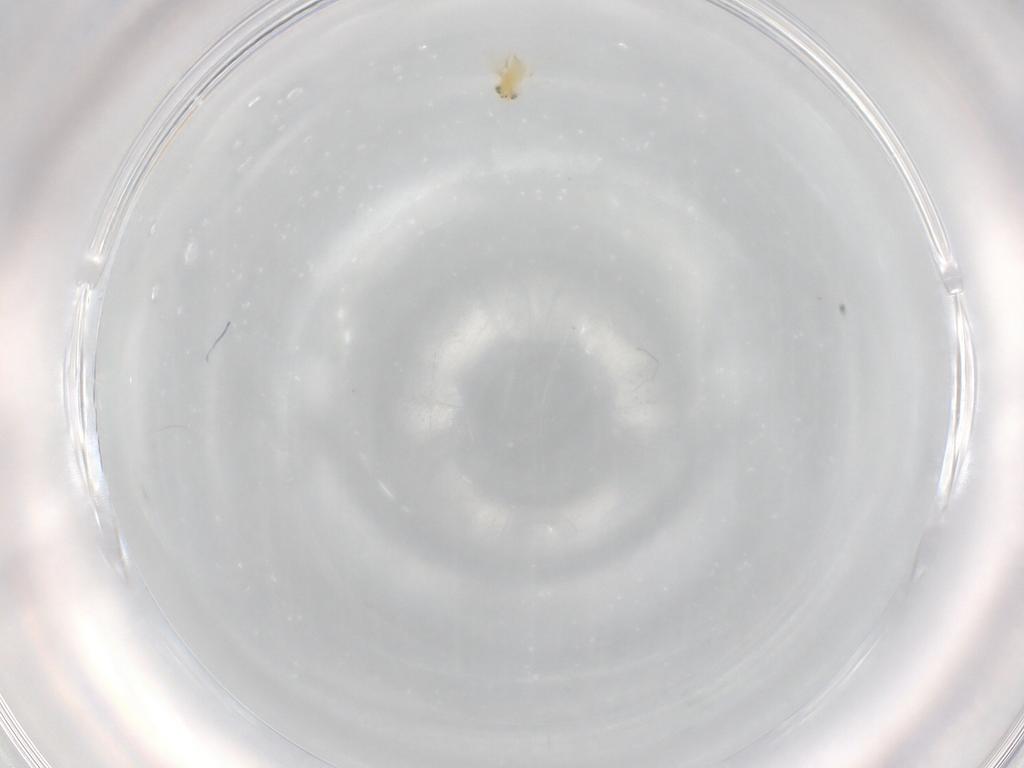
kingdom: Animalia
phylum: Arthropoda
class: Insecta
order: Hymenoptera
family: Aphelinidae
